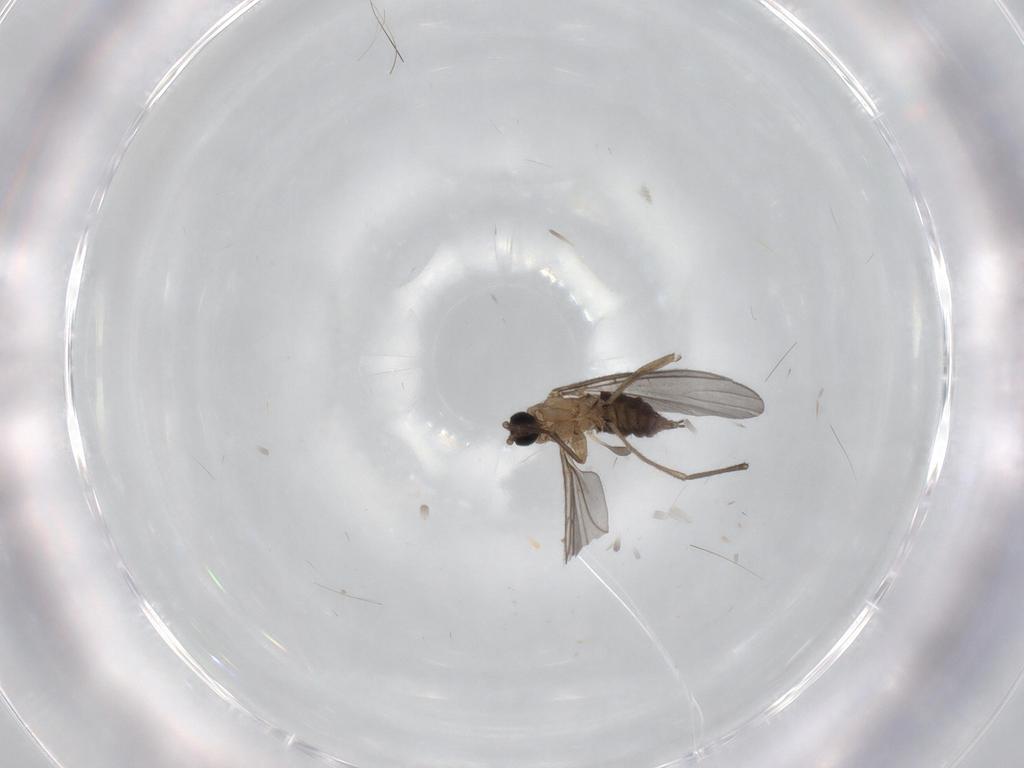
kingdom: Animalia
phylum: Arthropoda
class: Insecta
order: Diptera
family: Sciaridae
